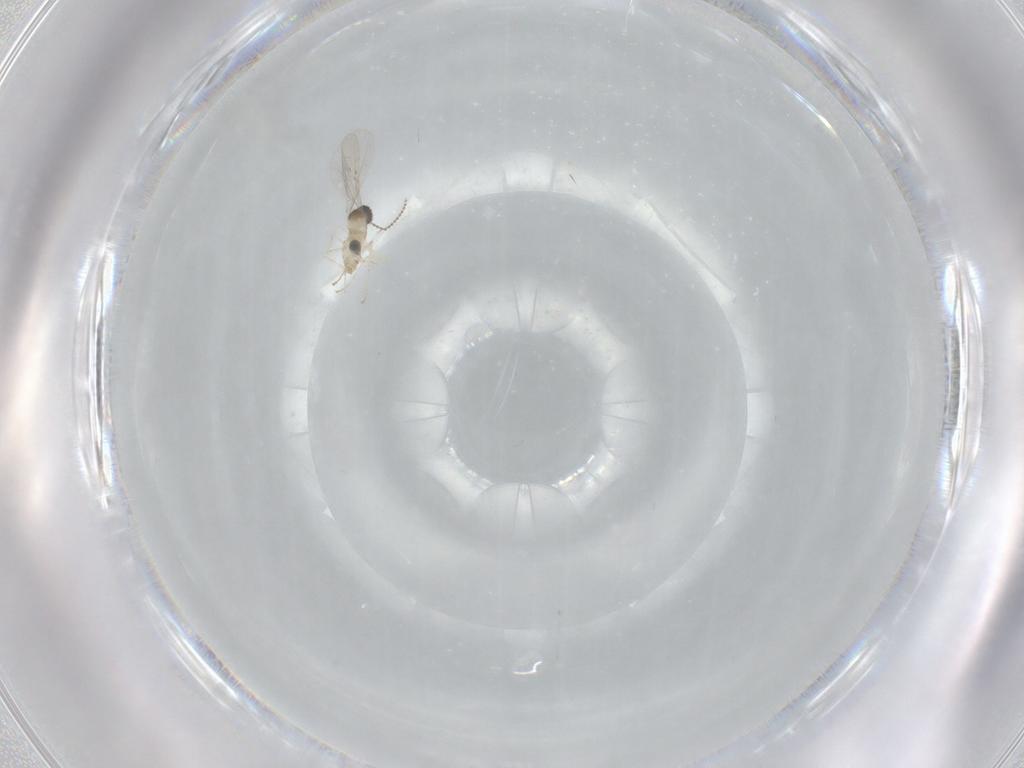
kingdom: Animalia
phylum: Arthropoda
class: Insecta
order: Diptera
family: Cecidomyiidae
